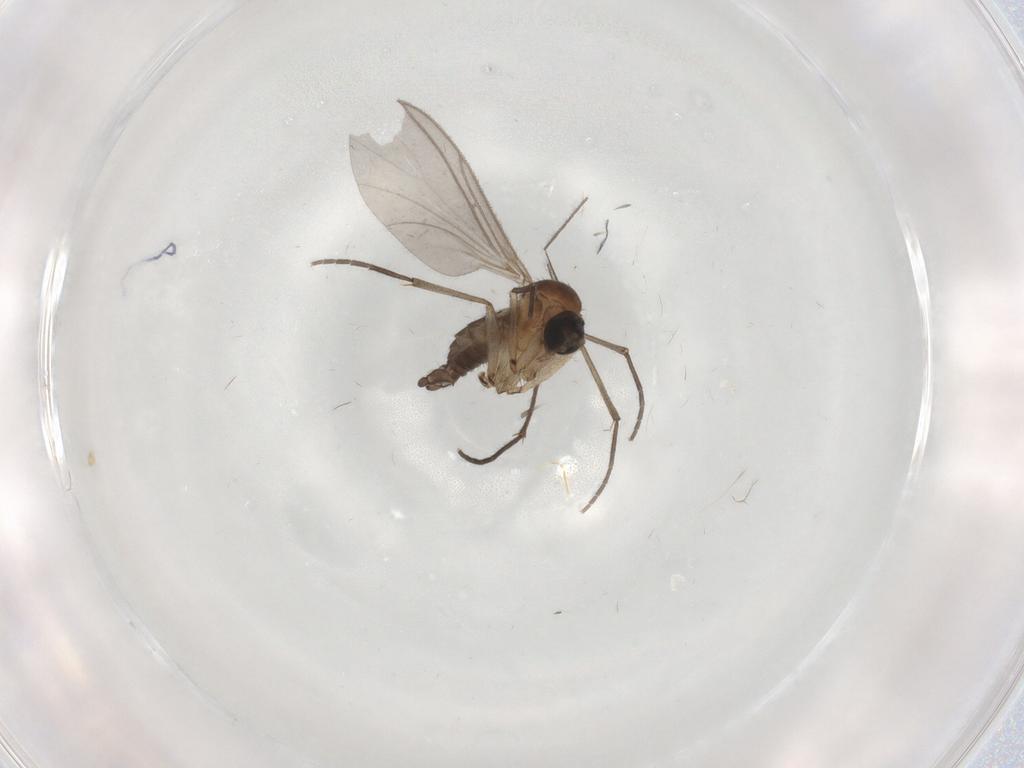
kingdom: Animalia
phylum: Arthropoda
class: Insecta
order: Diptera
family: Cecidomyiidae
